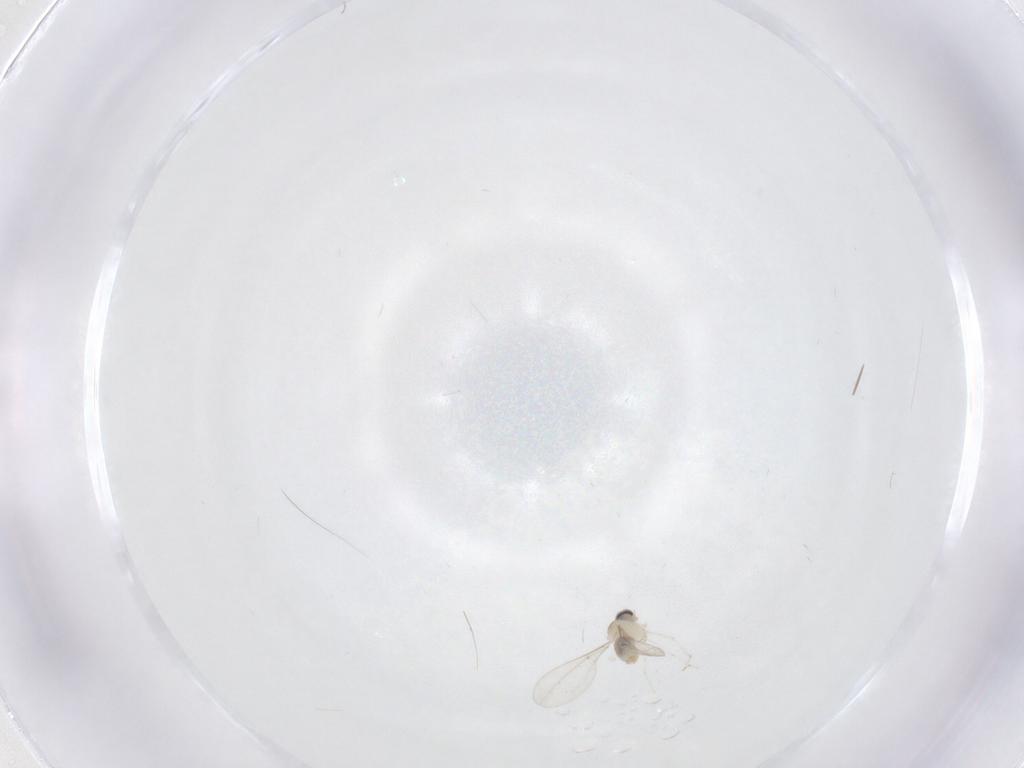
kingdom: Animalia
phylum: Arthropoda
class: Insecta
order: Diptera
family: Cecidomyiidae
